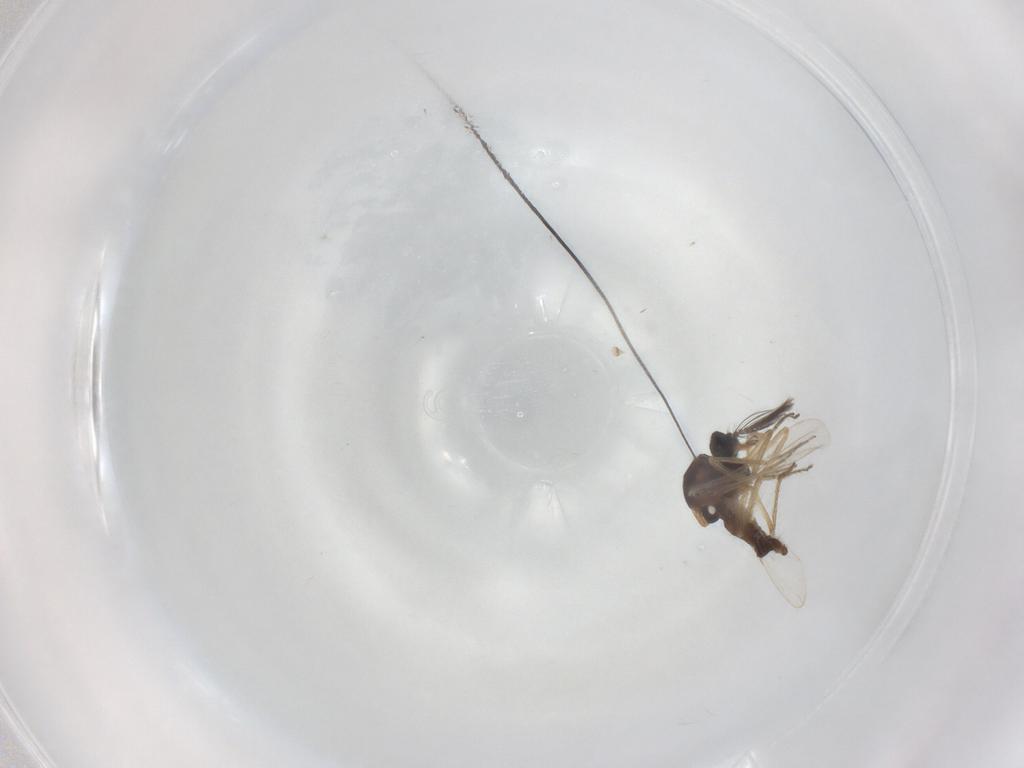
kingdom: Animalia
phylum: Arthropoda
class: Insecta
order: Diptera
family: Ceratopogonidae
